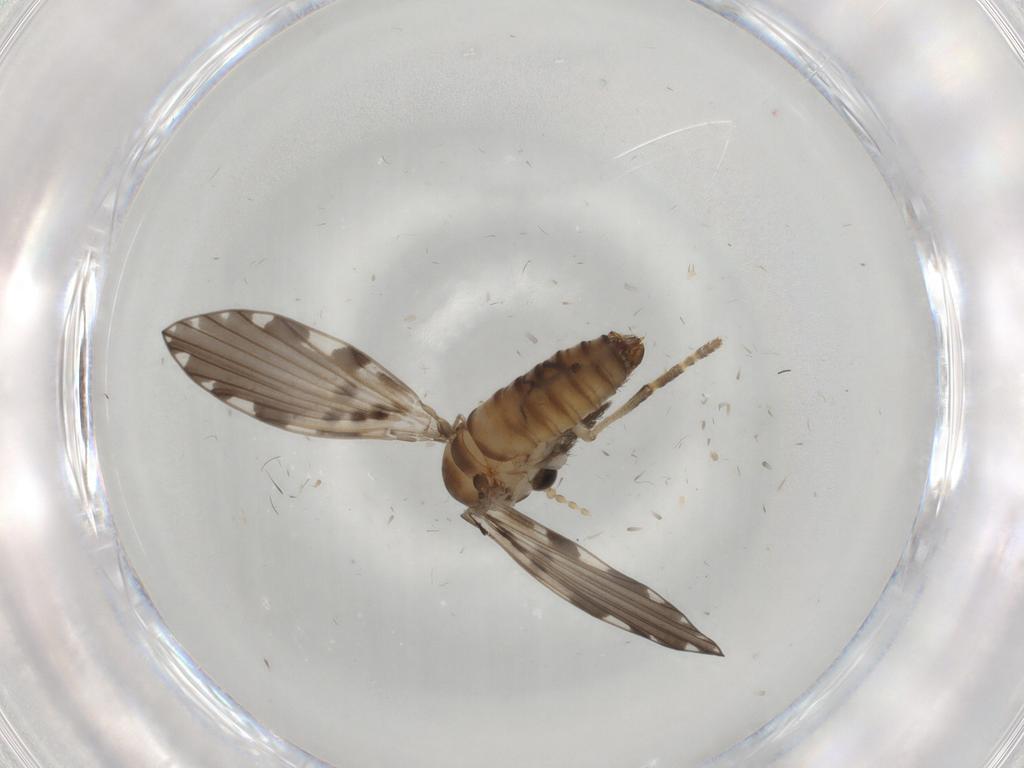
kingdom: Animalia
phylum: Arthropoda
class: Insecta
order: Diptera
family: Psychodidae
